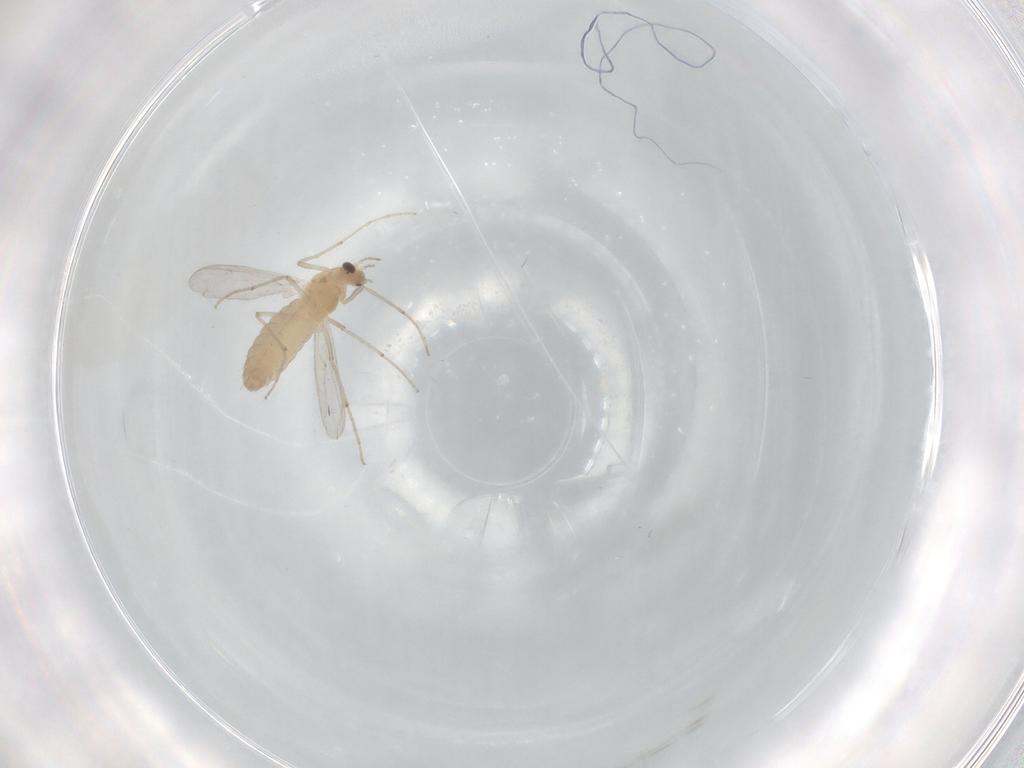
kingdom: Animalia
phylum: Arthropoda
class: Insecta
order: Diptera
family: Chironomidae
